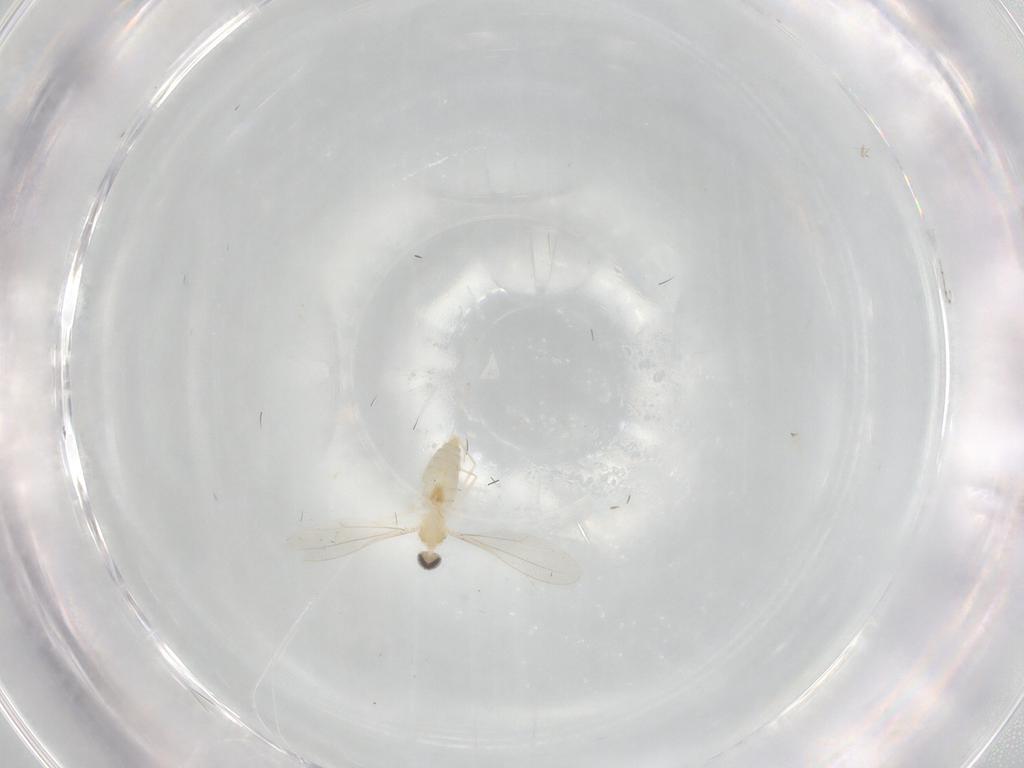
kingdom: Animalia
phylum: Arthropoda
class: Insecta
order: Diptera
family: Cecidomyiidae
